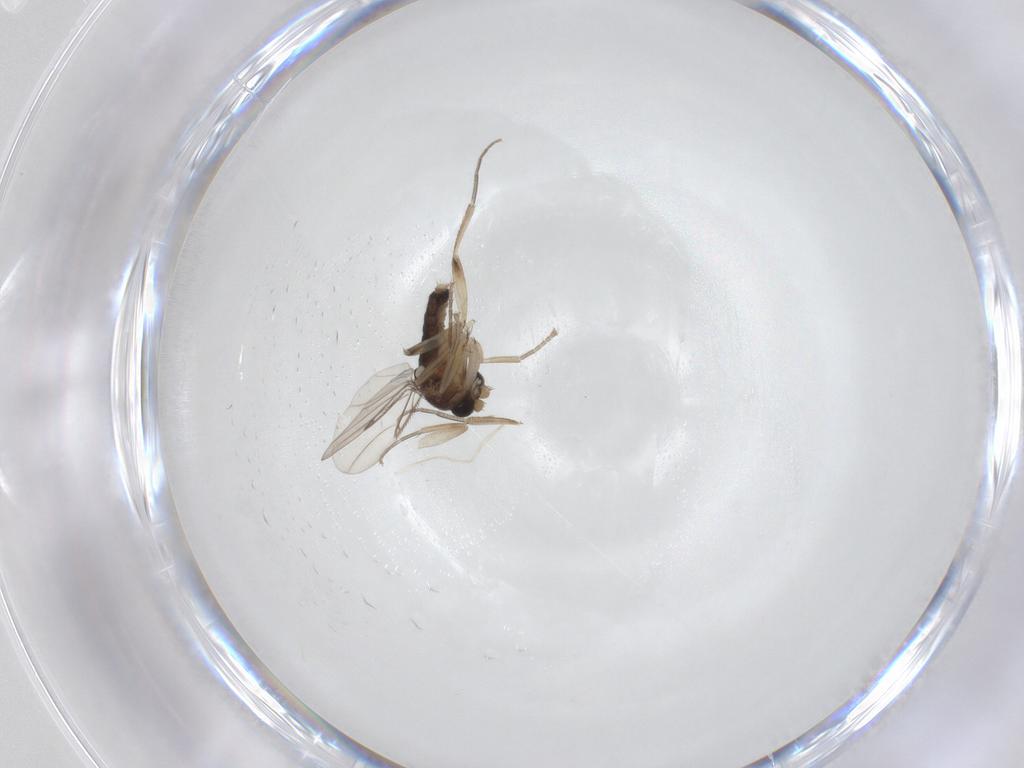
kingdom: Animalia
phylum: Arthropoda
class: Insecta
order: Diptera
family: Phoridae
